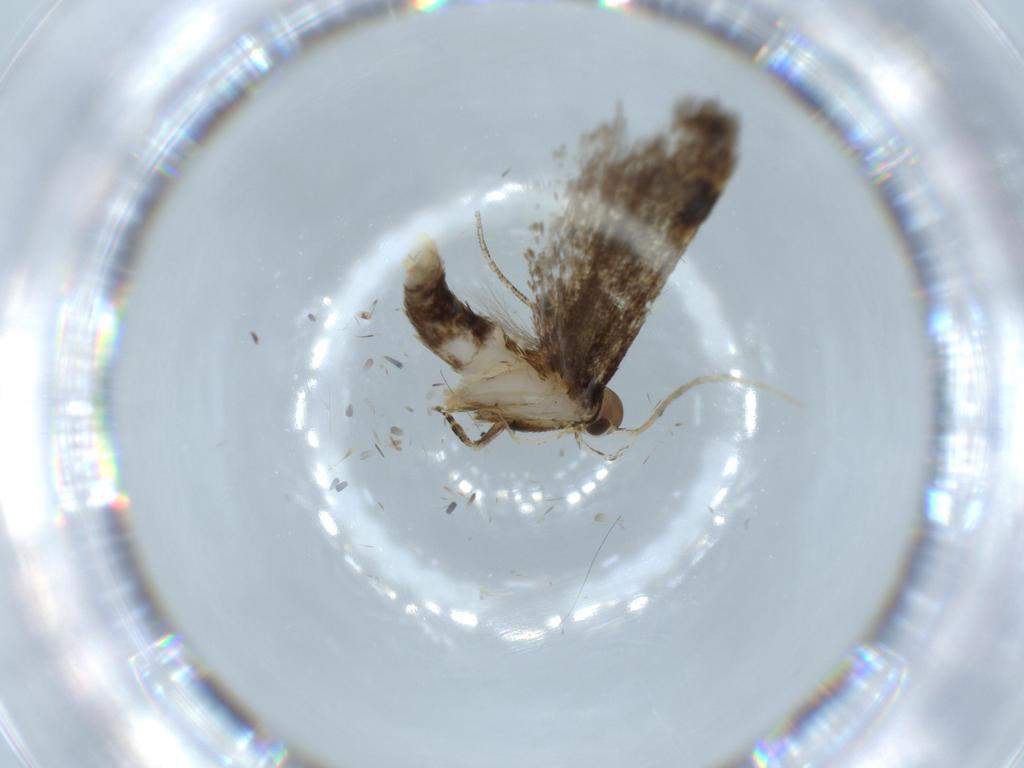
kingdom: Animalia
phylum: Arthropoda
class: Insecta
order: Lepidoptera
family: Nepticulidae
